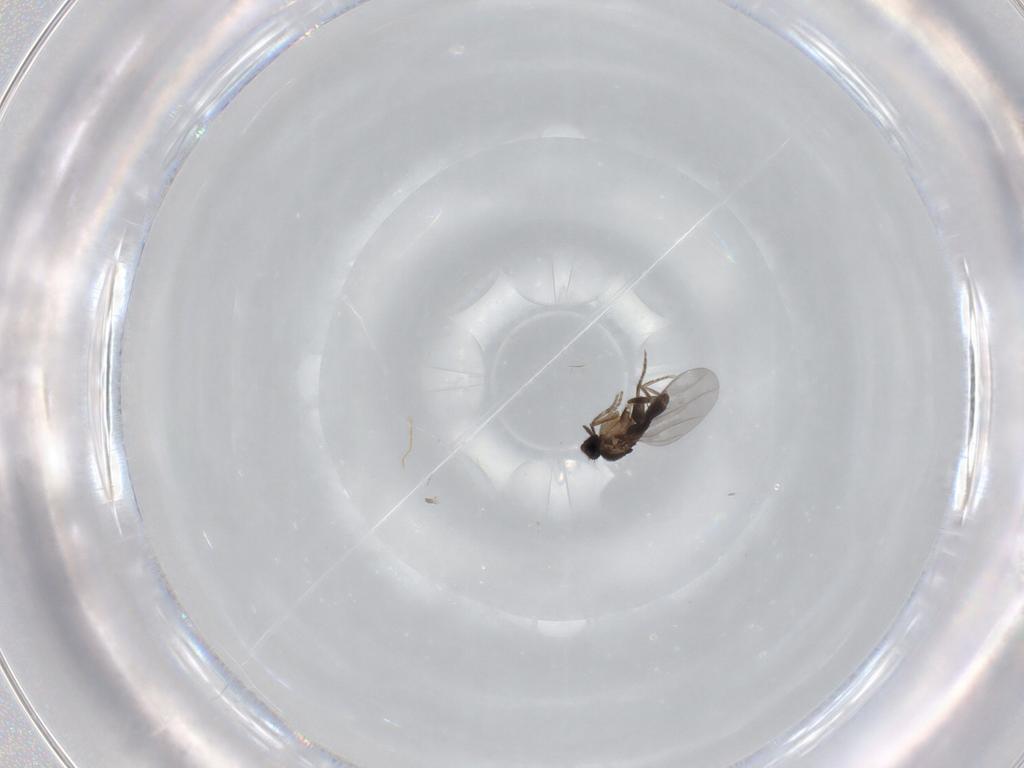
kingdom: Animalia
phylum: Arthropoda
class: Insecta
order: Diptera
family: Phoridae
